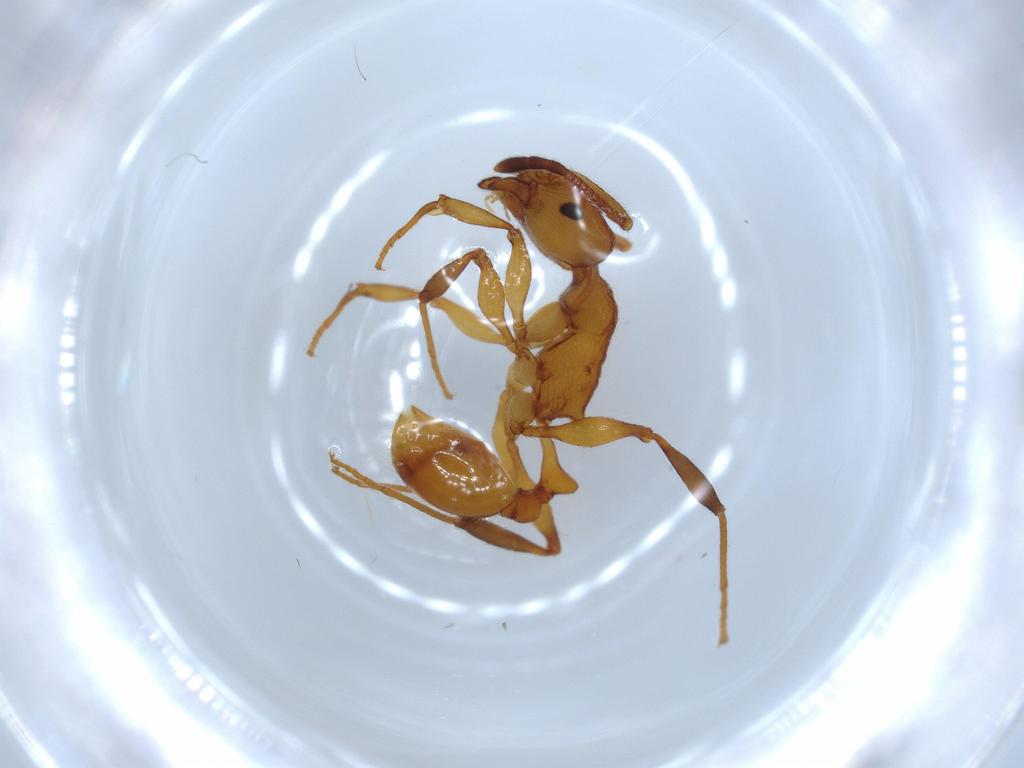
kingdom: Animalia
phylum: Arthropoda
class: Insecta
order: Hymenoptera
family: Formicidae
